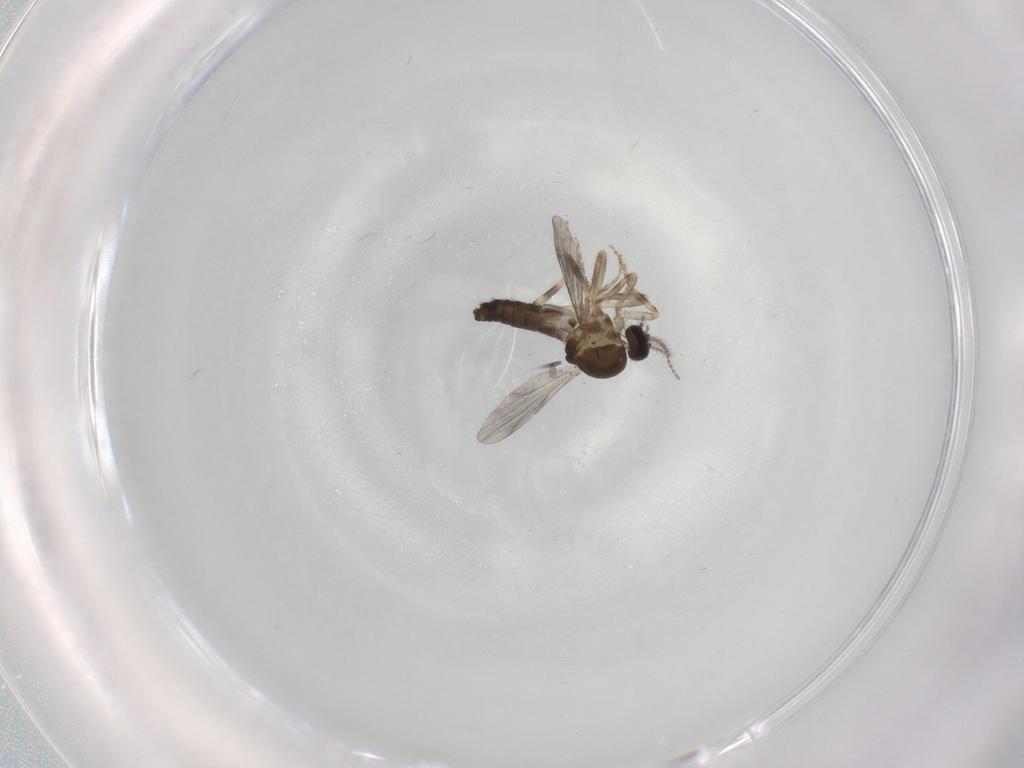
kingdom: Animalia
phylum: Arthropoda
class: Insecta
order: Diptera
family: Ceratopogonidae
